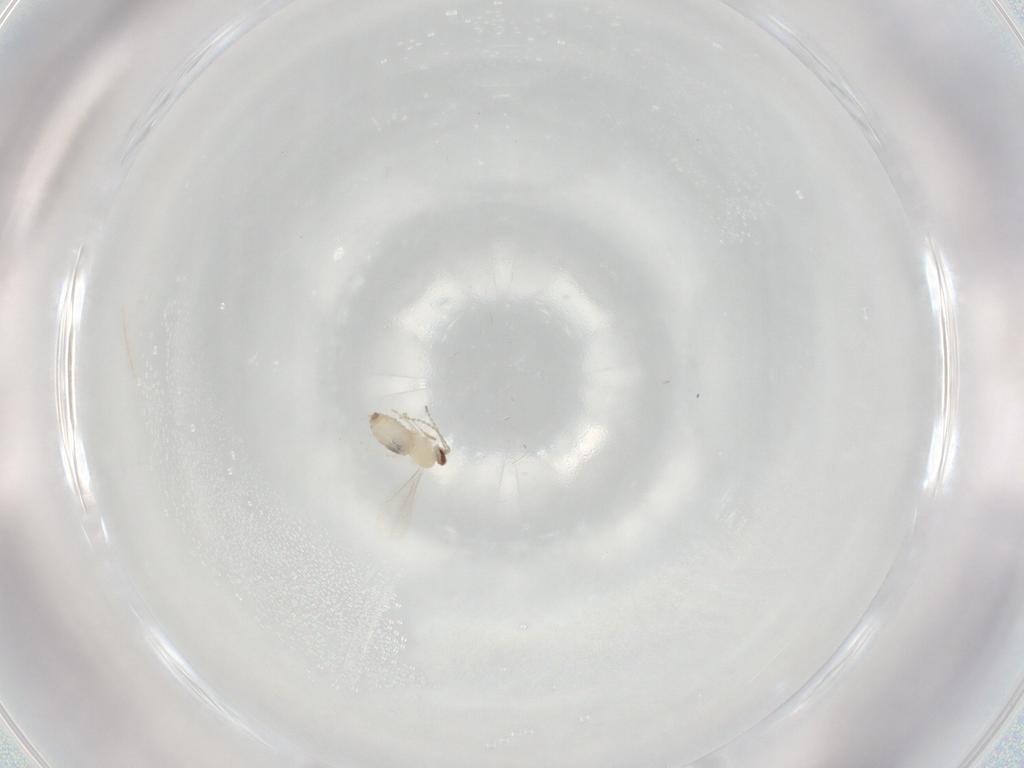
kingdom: Animalia
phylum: Arthropoda
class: Insecta
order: Diptera
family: Cecidomyiidae
